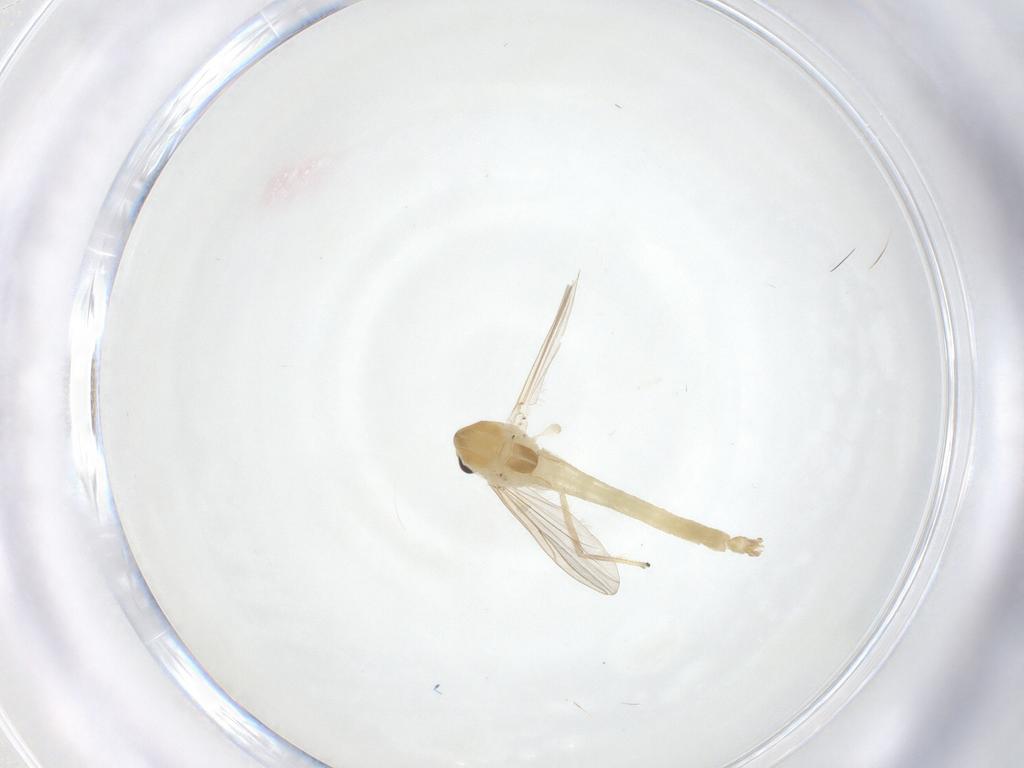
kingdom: Animalia
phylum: Arthropoda
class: Insecta
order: Diptera
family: Chironomidae
